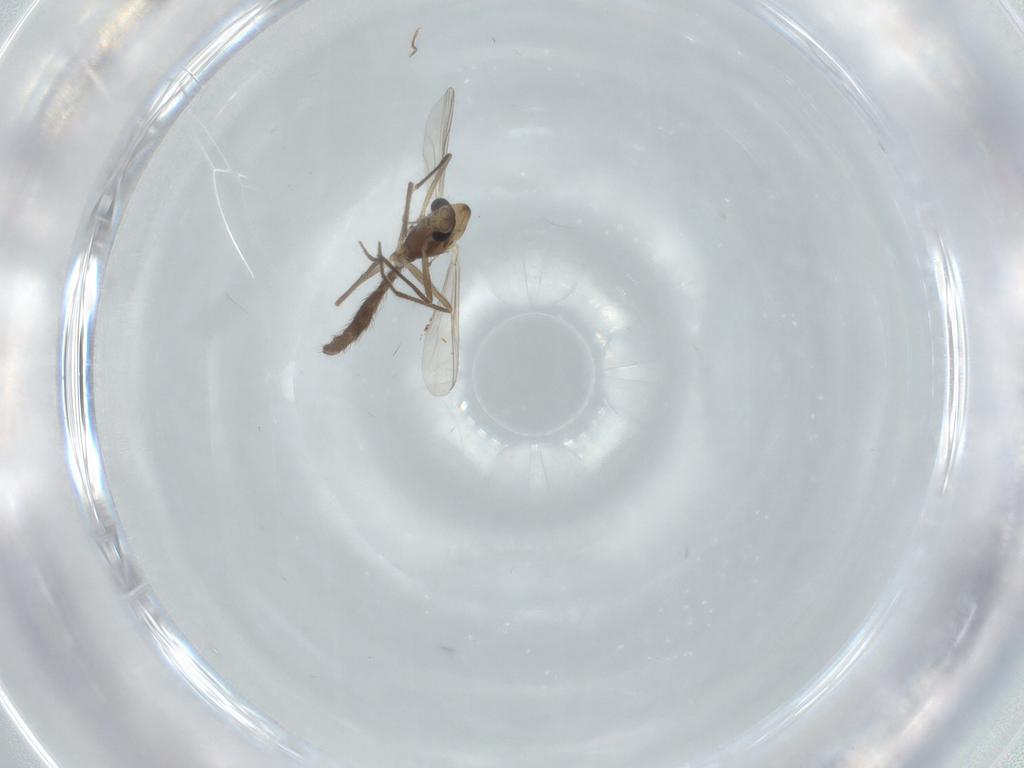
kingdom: Animalia
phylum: Arthropoda
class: Insecta
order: Diptera
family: Chironomidae
